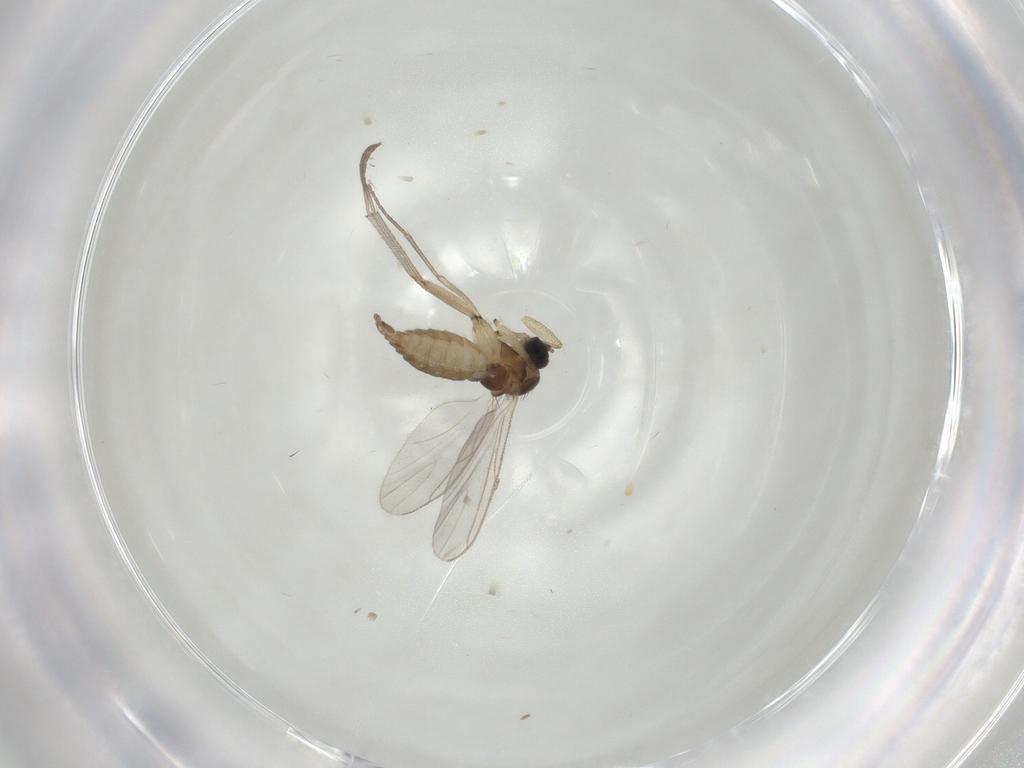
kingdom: Animalia
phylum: Arthropoda
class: Insecta
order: Diptera
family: Sciaridae
